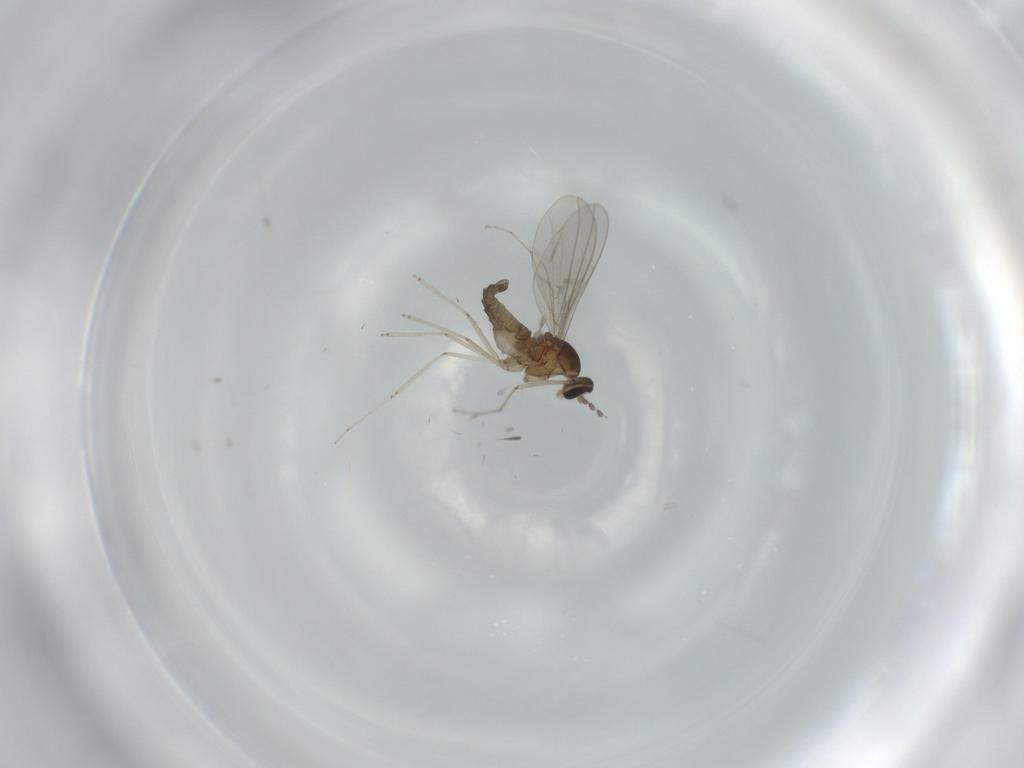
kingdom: Animalia
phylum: Arthropoda
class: Insecta
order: Diptera
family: Cecidomyiidae
